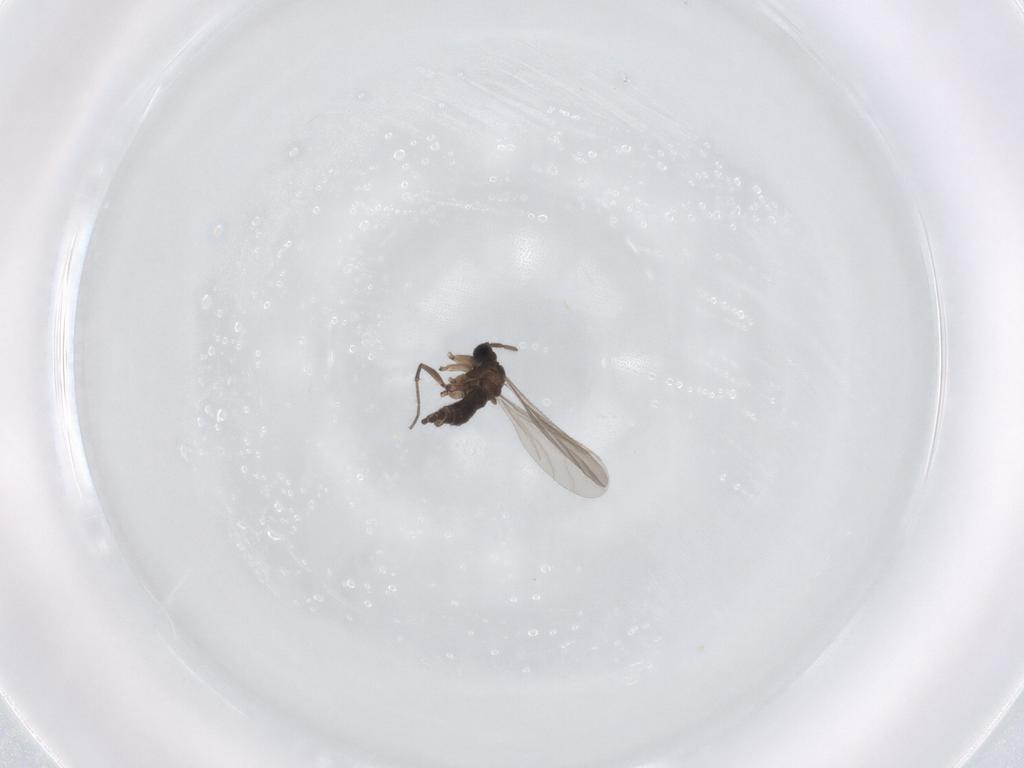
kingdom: Animalia
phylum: Arthropoda
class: Insecta
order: Diptera
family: Sciaridae
